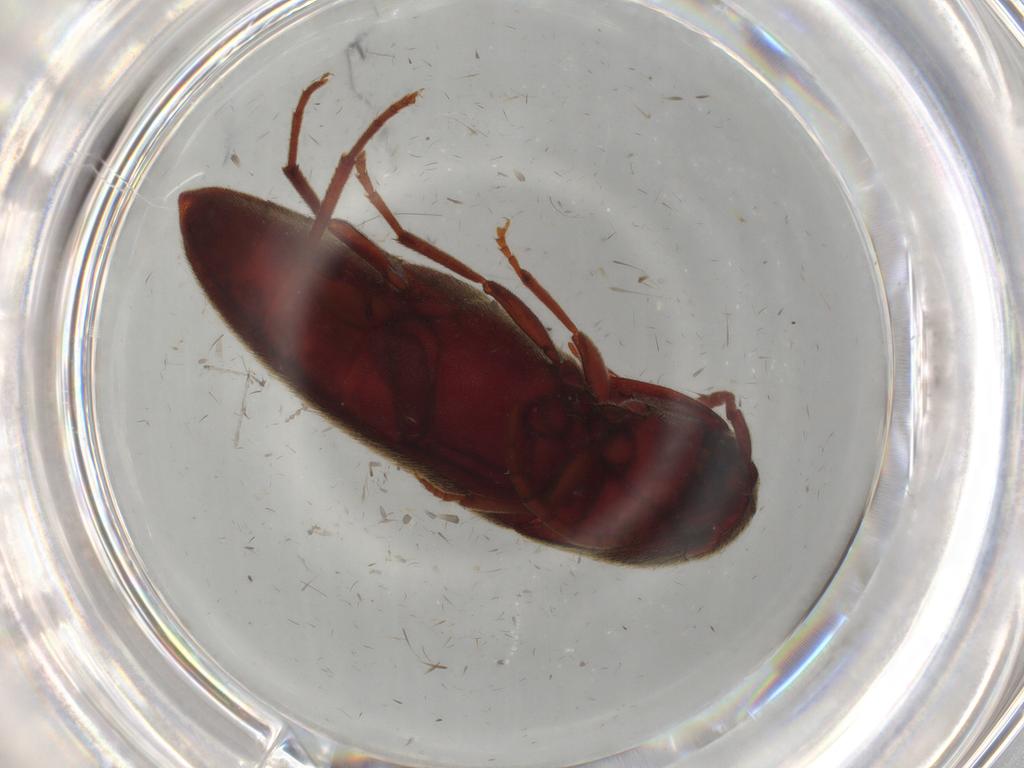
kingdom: Animalia
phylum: Arthropoda
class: Insecta
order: Coleoptera
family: Eucnemidae
